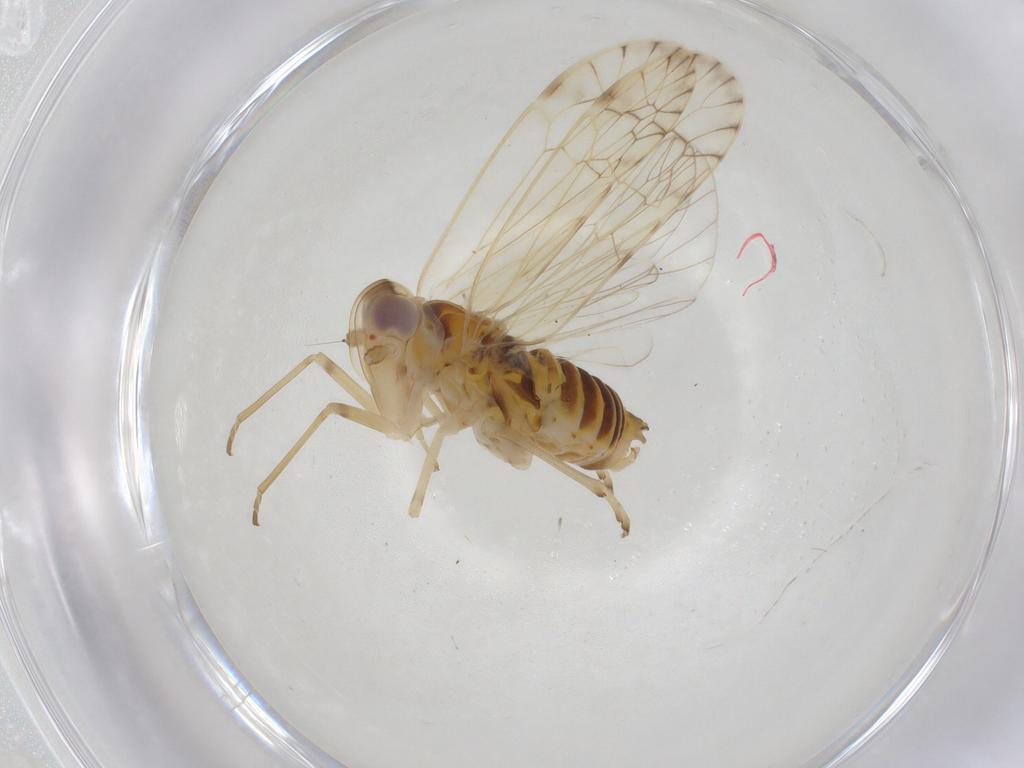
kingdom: Animalia
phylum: Arthropoda
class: Insecta
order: Hemiptera
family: Kinnaridae
